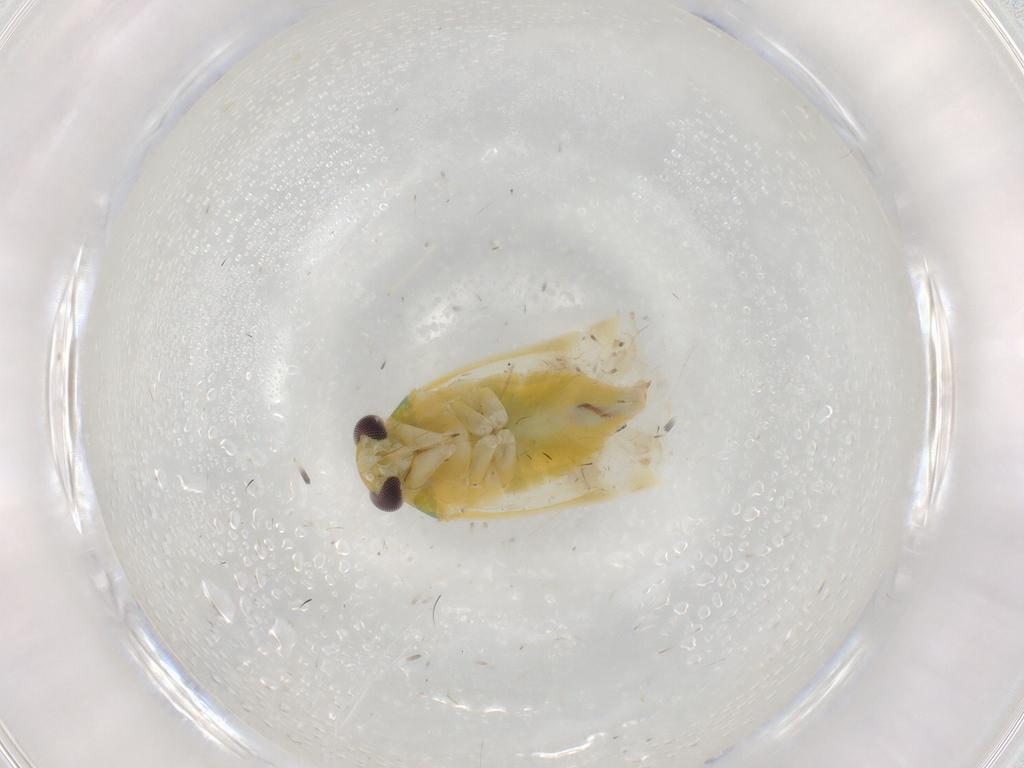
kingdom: Animalia
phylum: Arthropoda
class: Insecta
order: Hemiptera
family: Miridae
